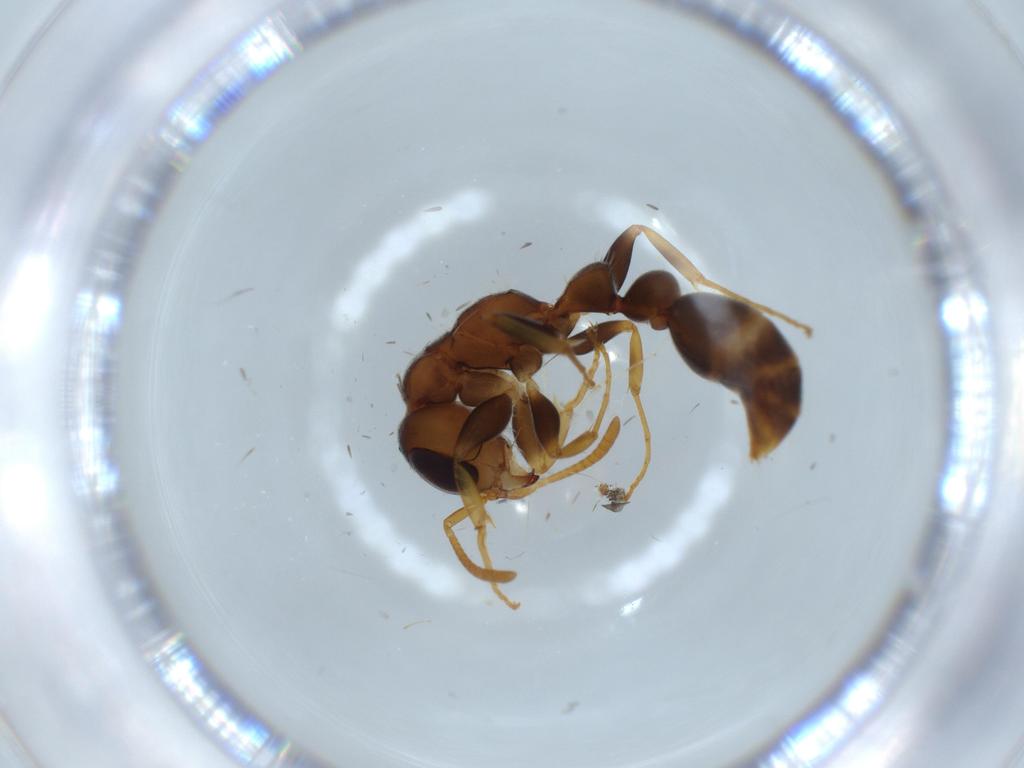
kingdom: Animalia
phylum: Arthropoda
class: Insecta
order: Hymenoptera
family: Formicidae
